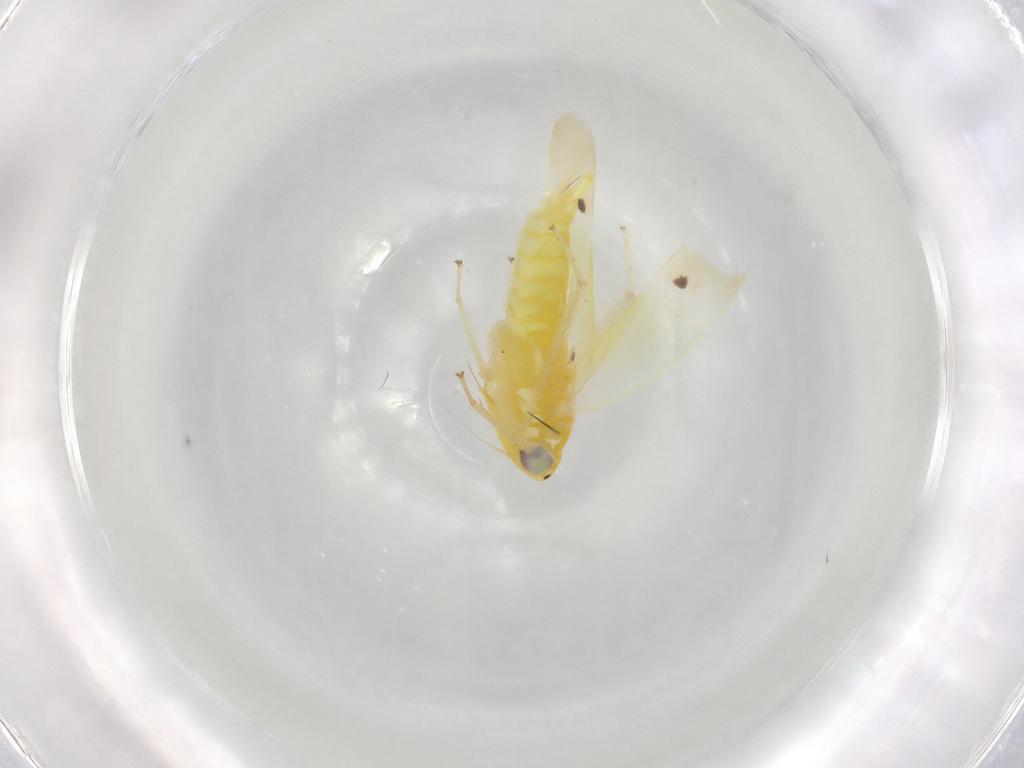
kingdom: Animalia
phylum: Arthropoda
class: Insecta
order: Hemiptera
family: Cicadellidae
